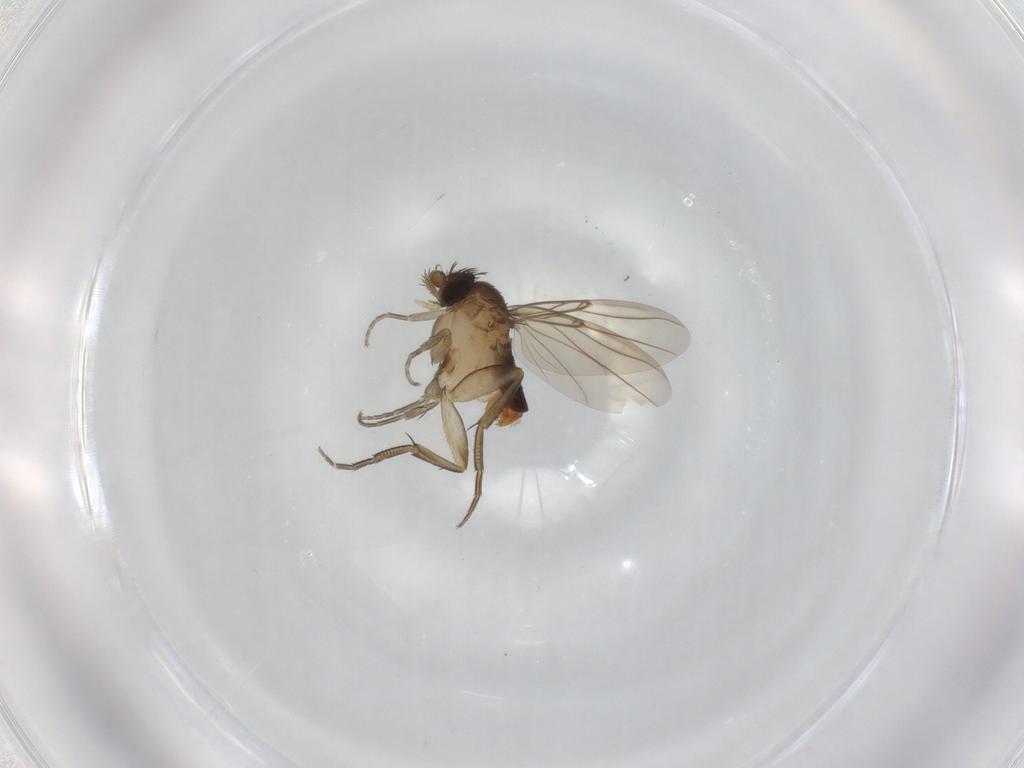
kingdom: Animalia
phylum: Arthropoda
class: Insecta
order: Diptera
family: Phoridae
